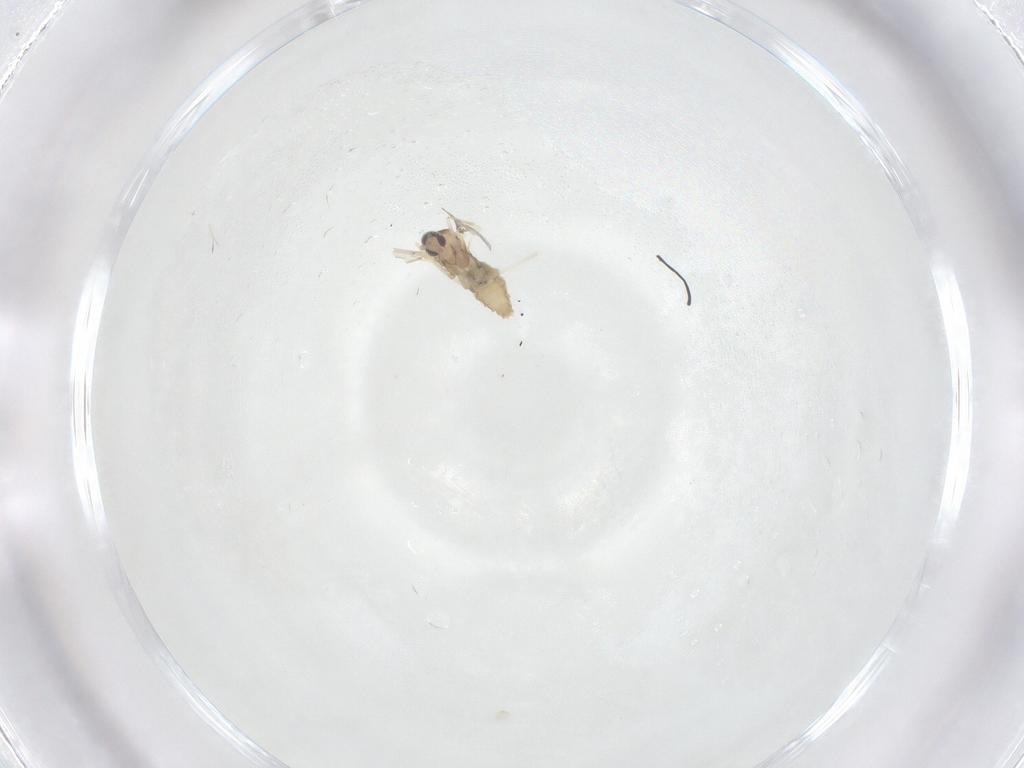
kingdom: Animalia
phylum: Arthropoda
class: Insecta
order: Diptera
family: Cecidomyiidae
